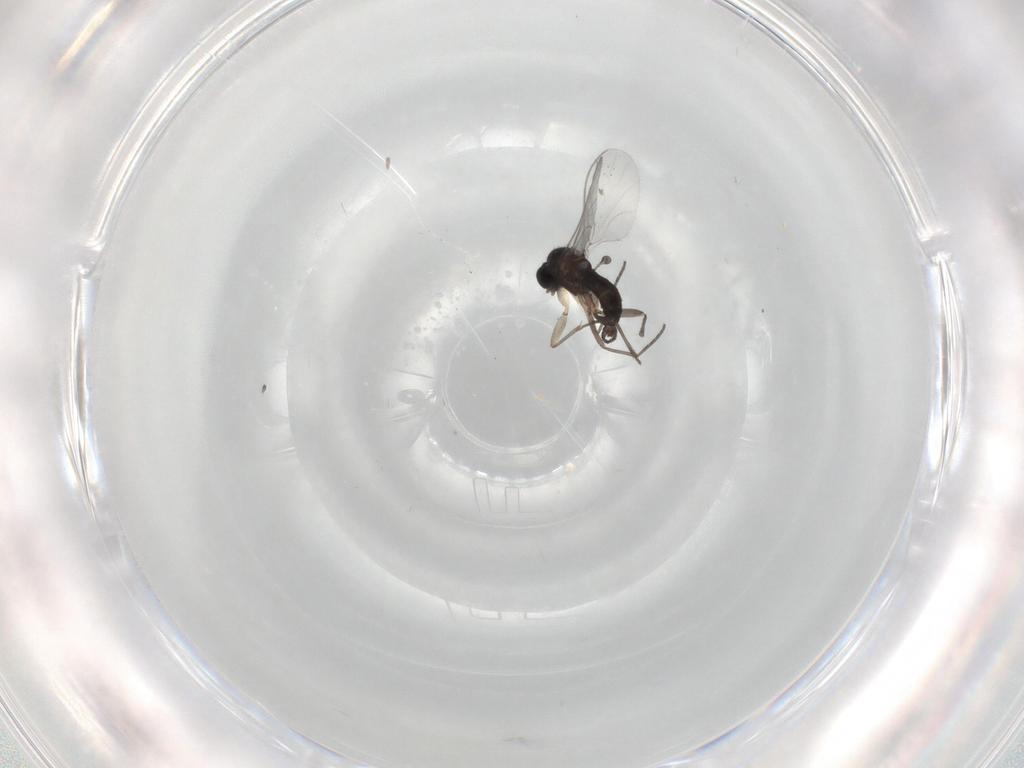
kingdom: Animalia
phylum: Arthropoda
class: Insecta
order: Diptera
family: Sciaridae
